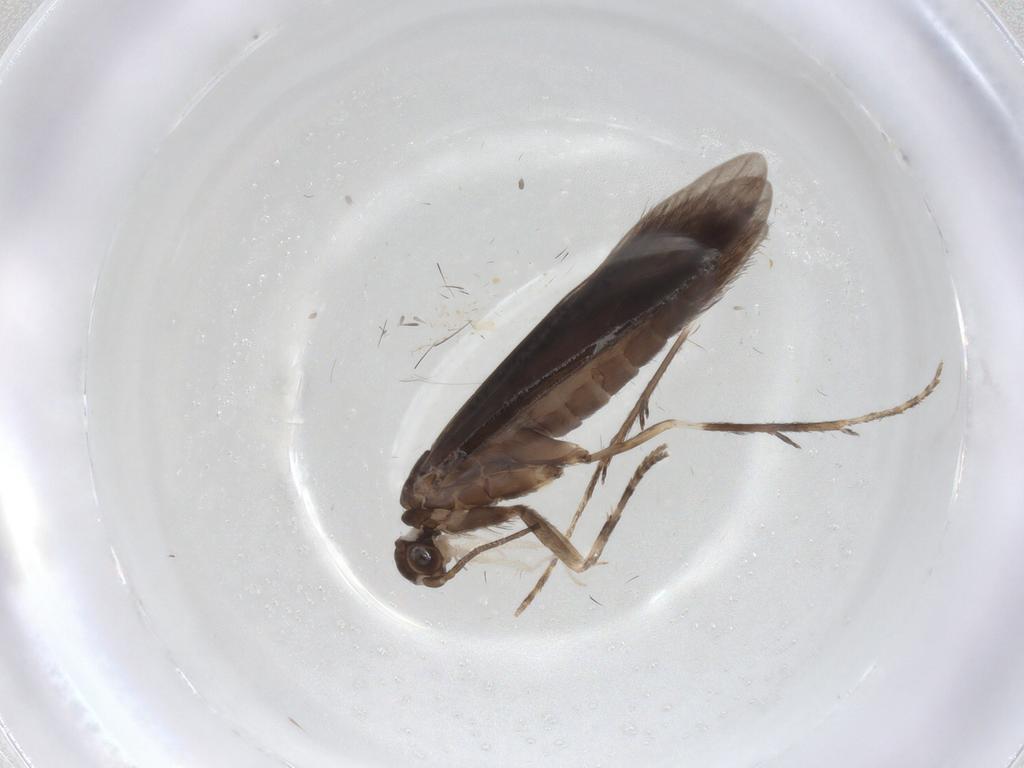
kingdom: Animalia
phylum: Arthropoda
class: Insecta
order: Trichoptera
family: Xiphocentronidae
